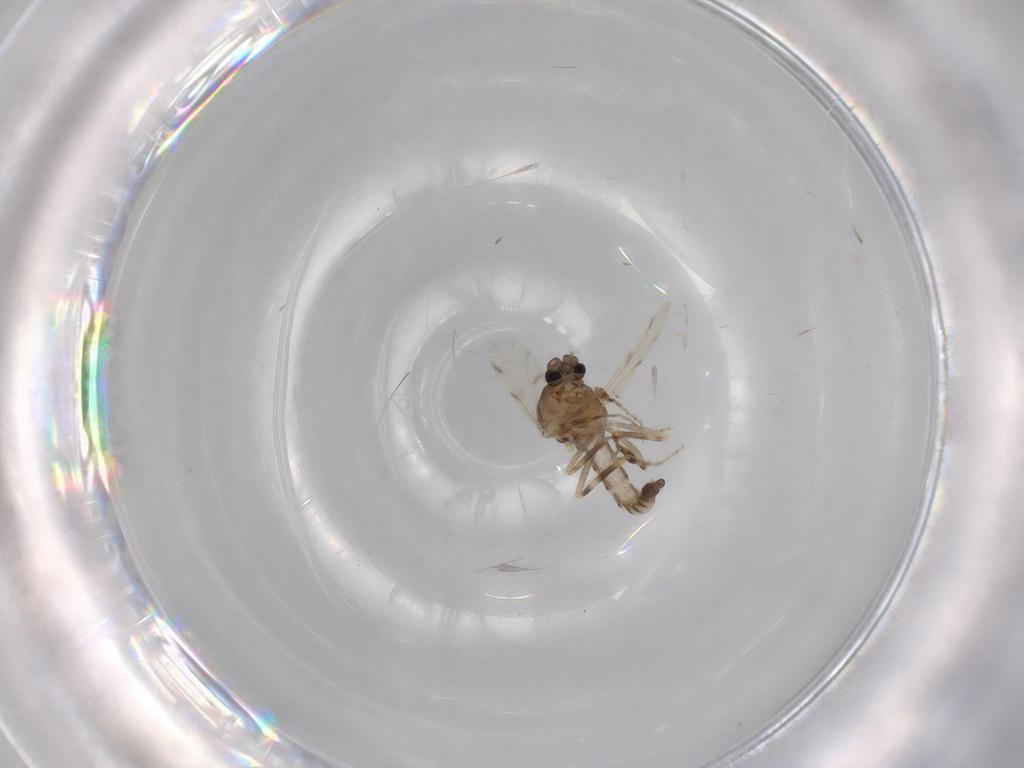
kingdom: Animalia
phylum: Arthropoda
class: Insecta
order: Diptera
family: Ceratopogonidae
